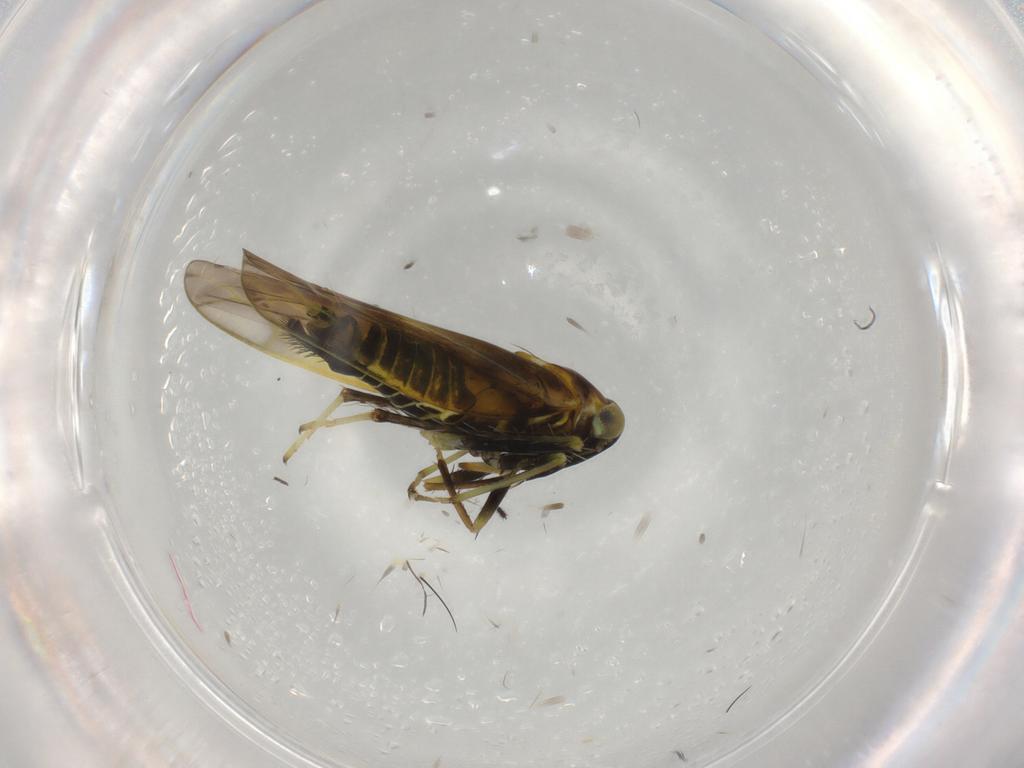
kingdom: Animalia
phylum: Arthropoda
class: Insecta
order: Hemiptera
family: Cicadellidae
